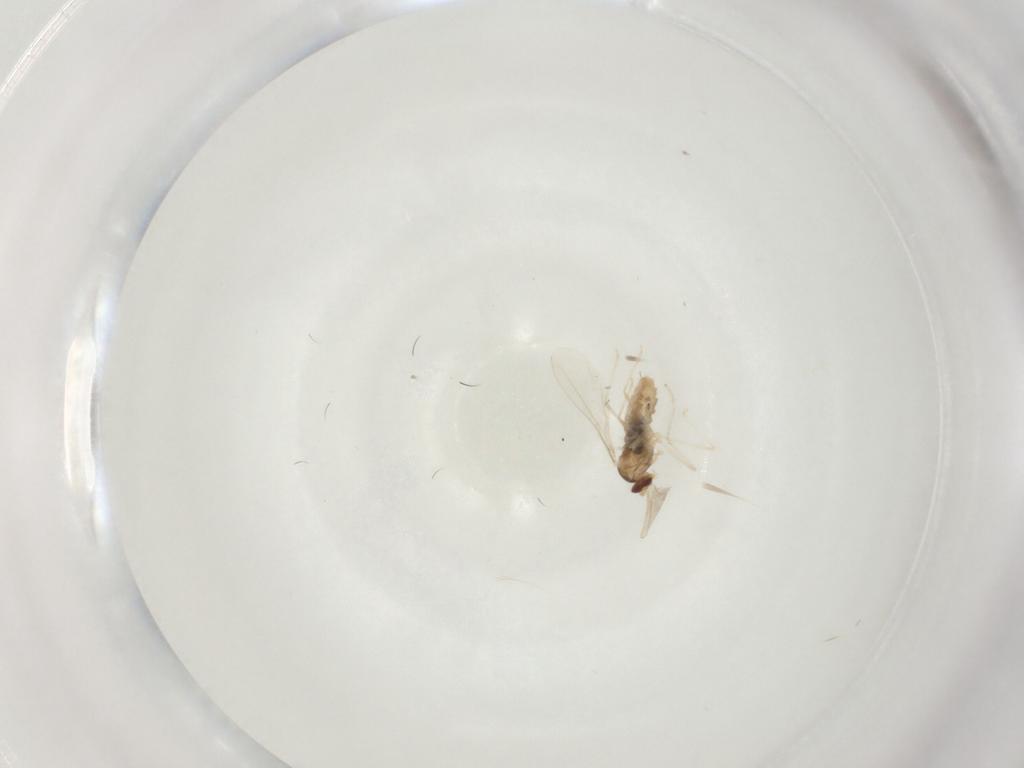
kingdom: Animalia
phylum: Arthropoda
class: Insecta
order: Diptera
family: Cecidomyiidae
